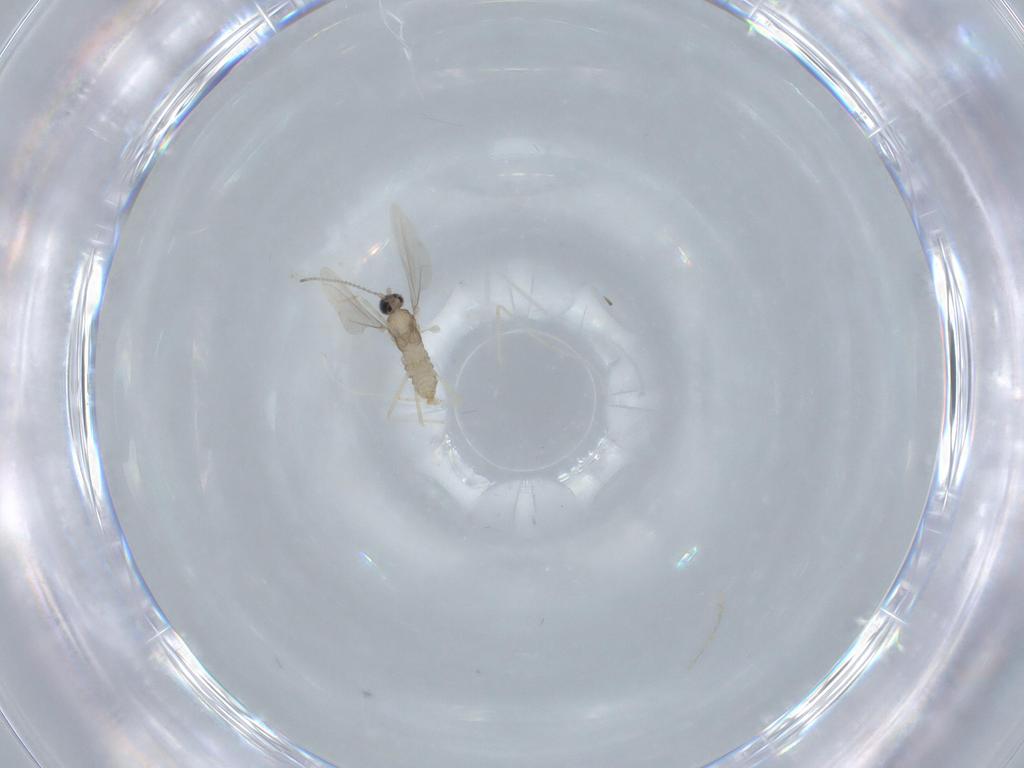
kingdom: Animalia
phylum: Arthropoda
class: Insecta
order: Diptera
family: Cecidomyiidae
